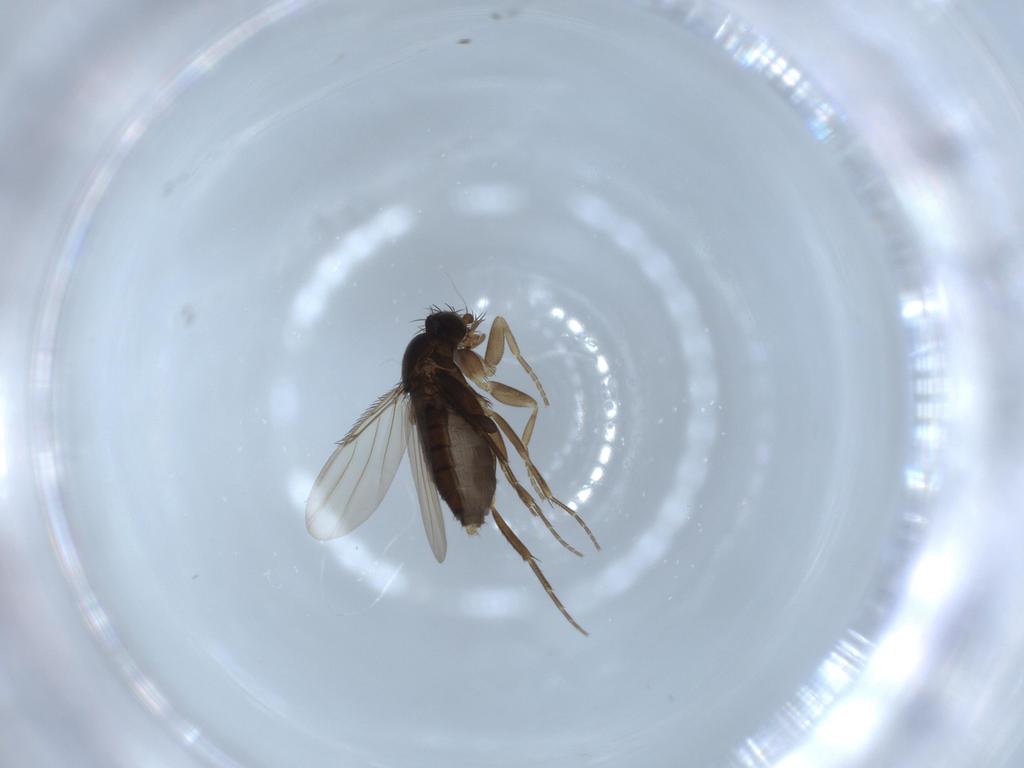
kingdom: Animalia
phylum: Arthropoda
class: Insecta
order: Diptera
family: Phoridae
